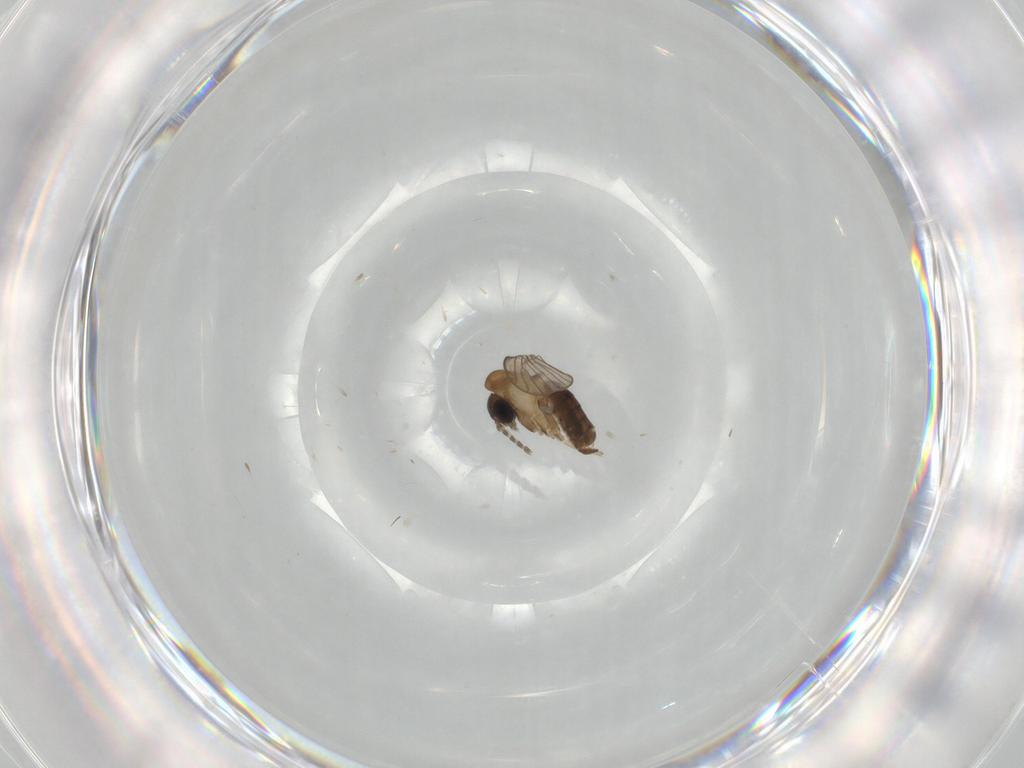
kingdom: Animalia
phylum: Arthropoda
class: Insecta
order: Diptera
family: Psychodidae
